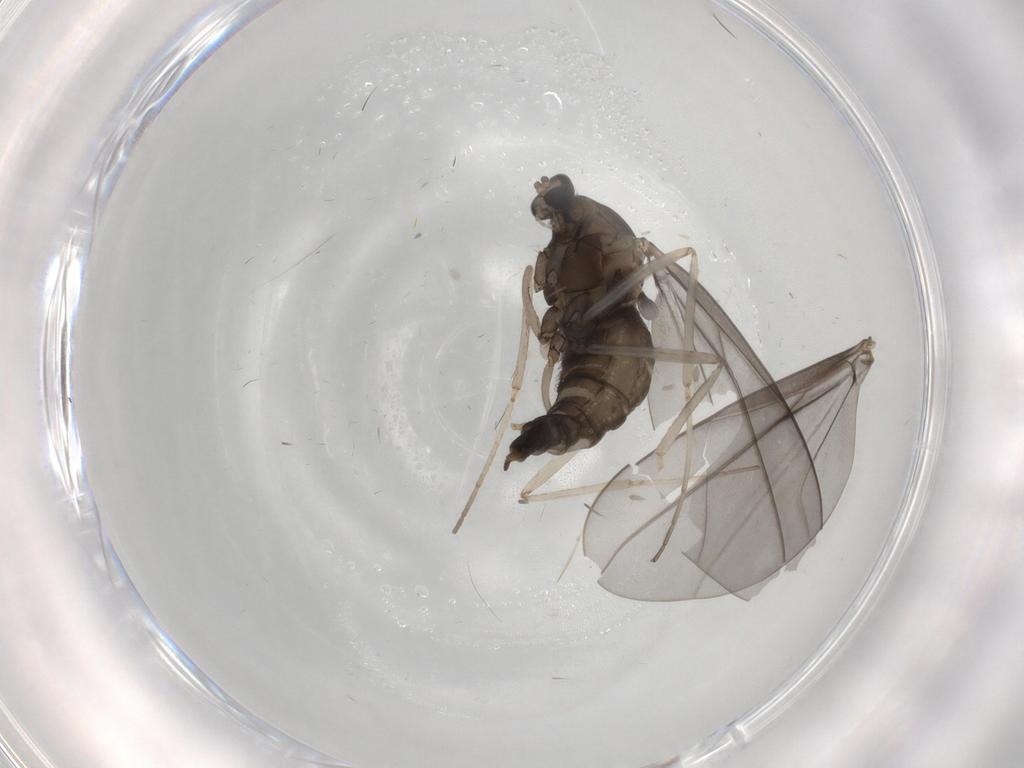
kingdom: Animalia
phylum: Arthropoda
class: Insecta
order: Diptera
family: Cecidomyiidae
